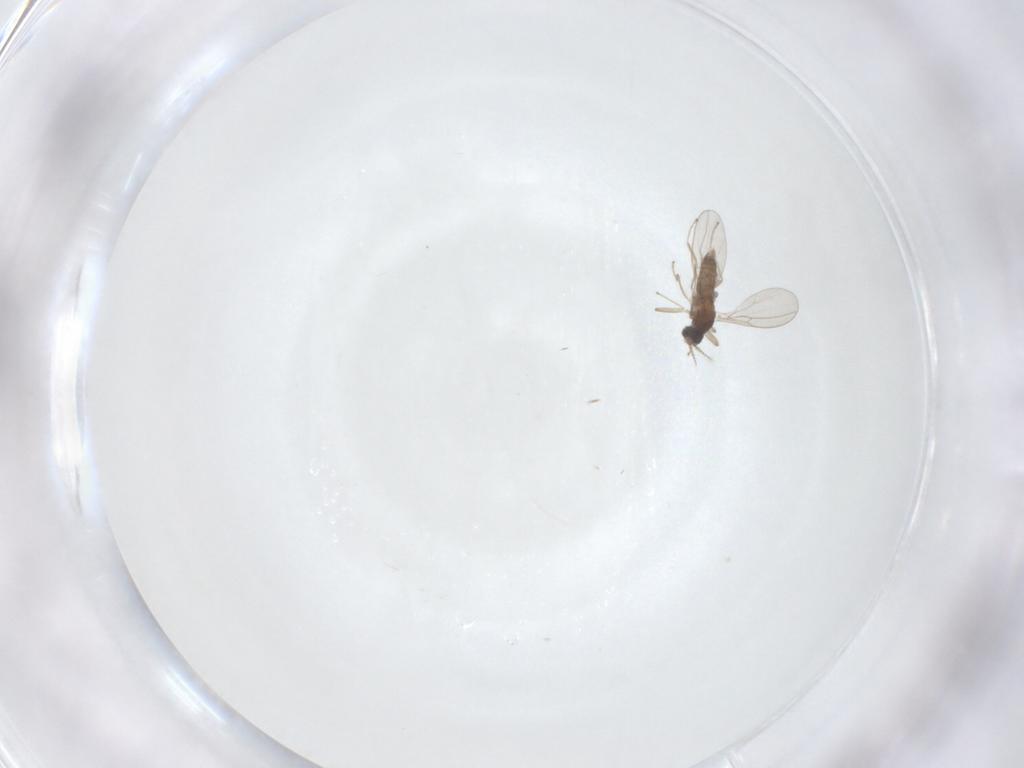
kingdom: Animalia
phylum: Arthropoda
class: Insecta
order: Diptera
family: Cecidomyiidae
